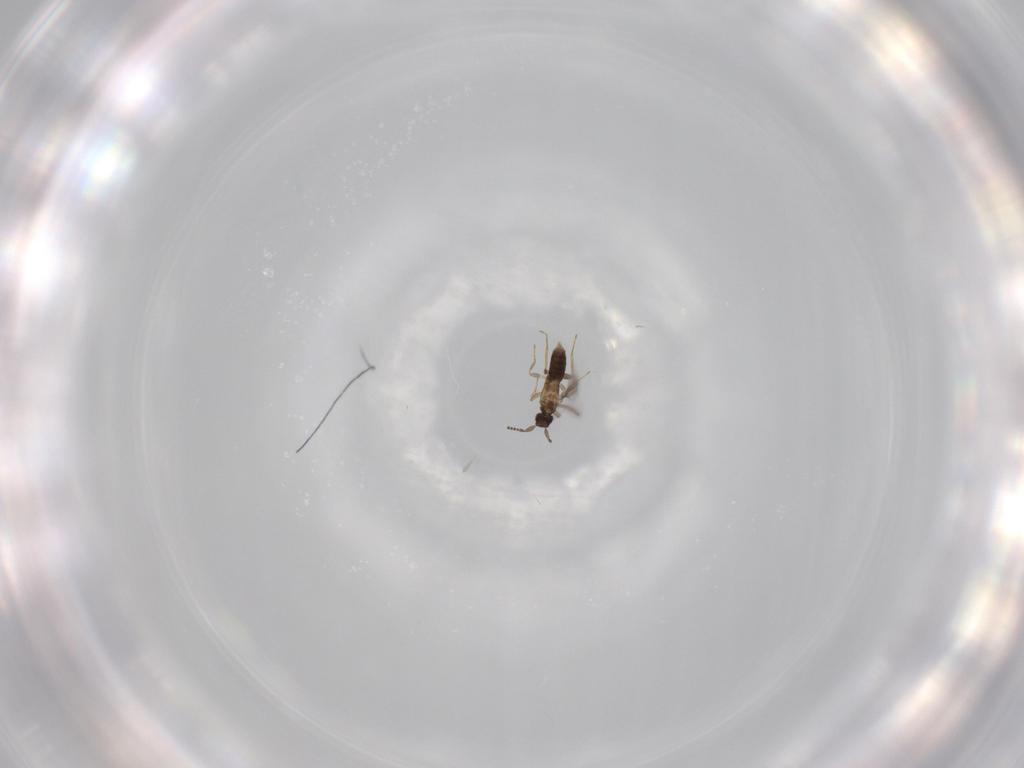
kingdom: Animalia
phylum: Arthropoda
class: Insecta
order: Hymenoptera
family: Mymaridae
